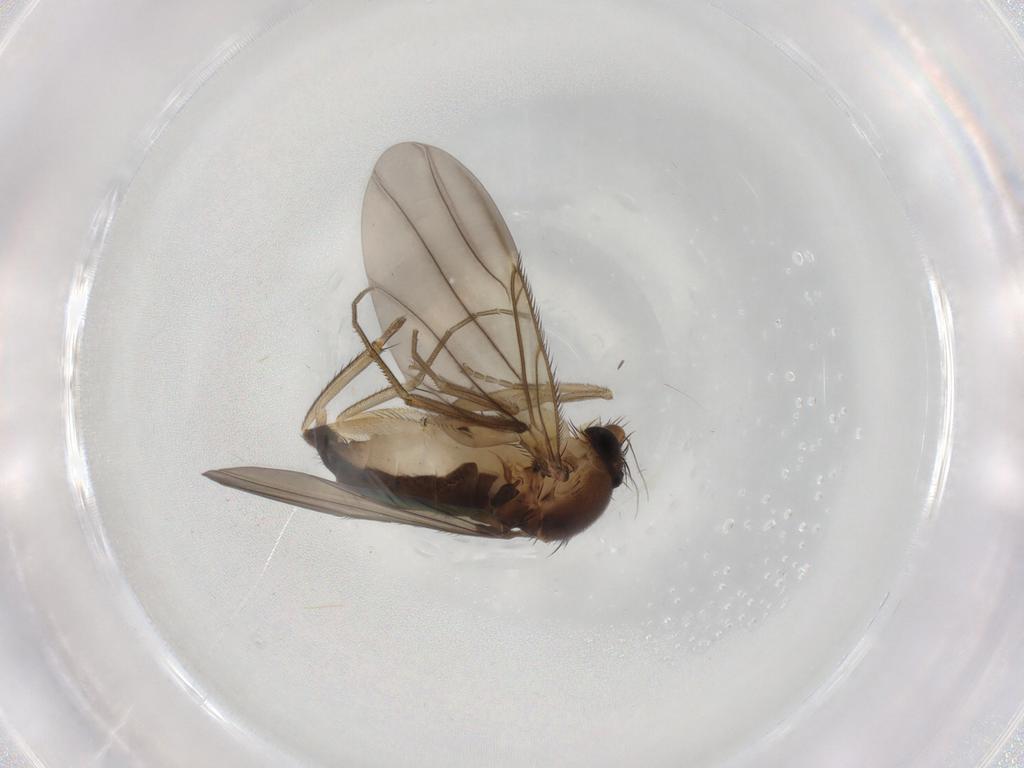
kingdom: Animalia
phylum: Arthropoda
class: Insecta
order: Diptera
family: Phoridae
